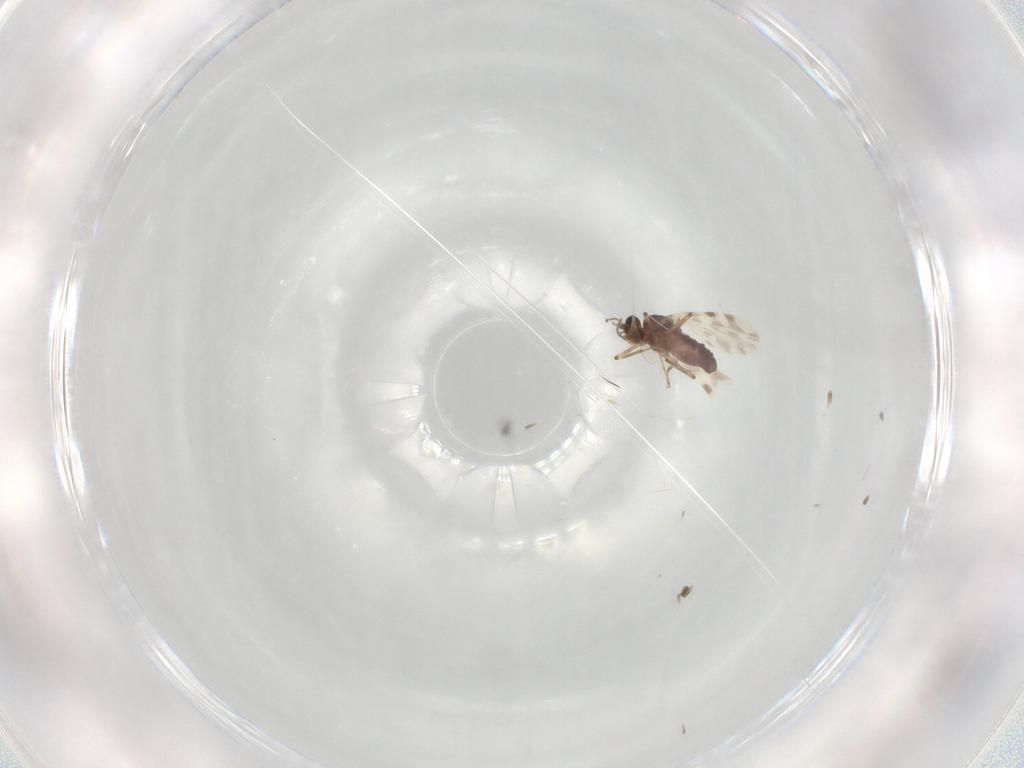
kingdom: Animalia
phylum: Arthropoda
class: Insecta
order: Diptera
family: Ceratopogonidae
